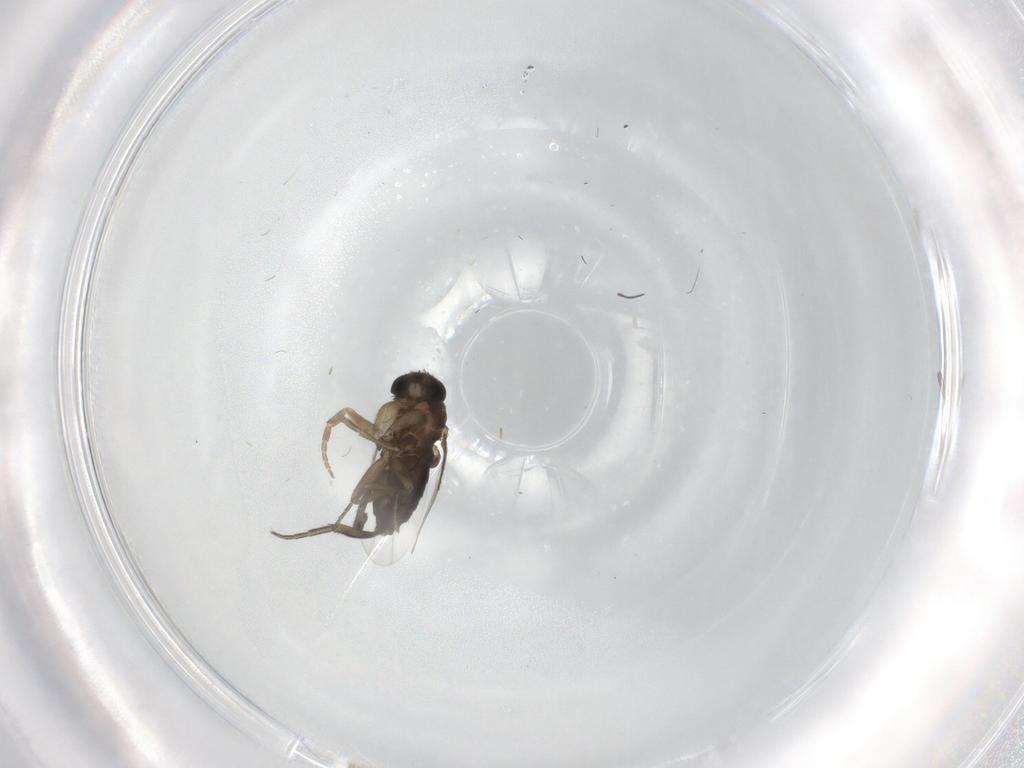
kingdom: Animalia
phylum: Arthropoda
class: Insecta
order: Diptera
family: Phoridae
